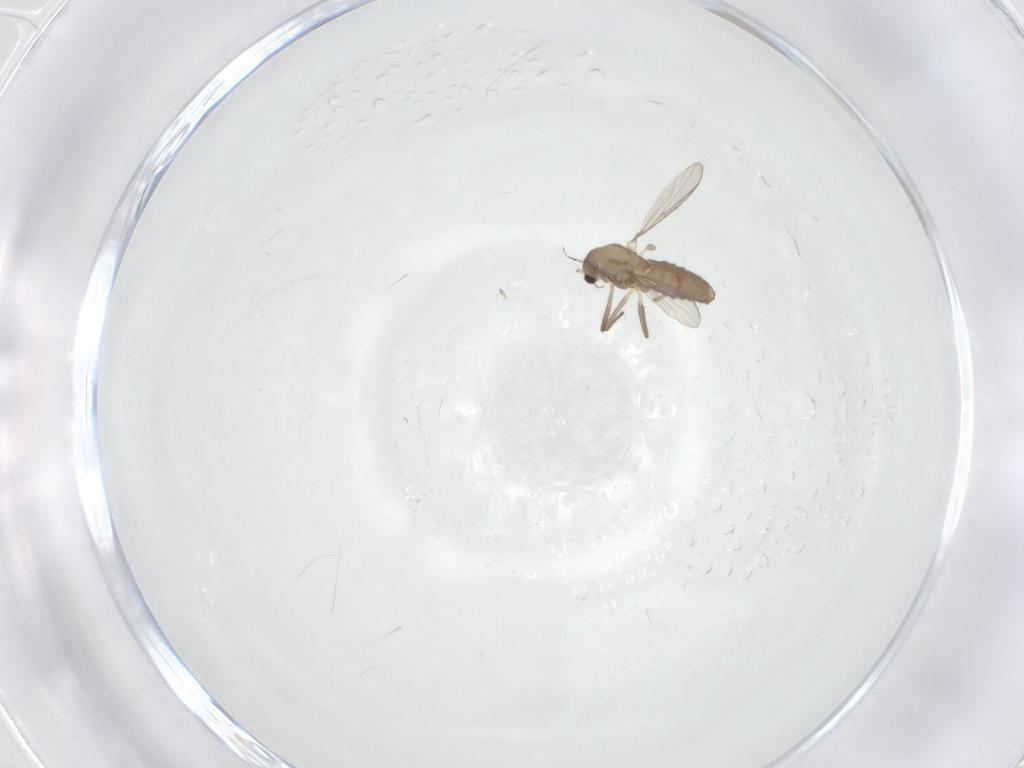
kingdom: Animalia
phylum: Arthropoda
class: Insecta
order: Diptera
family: Chironomidae
